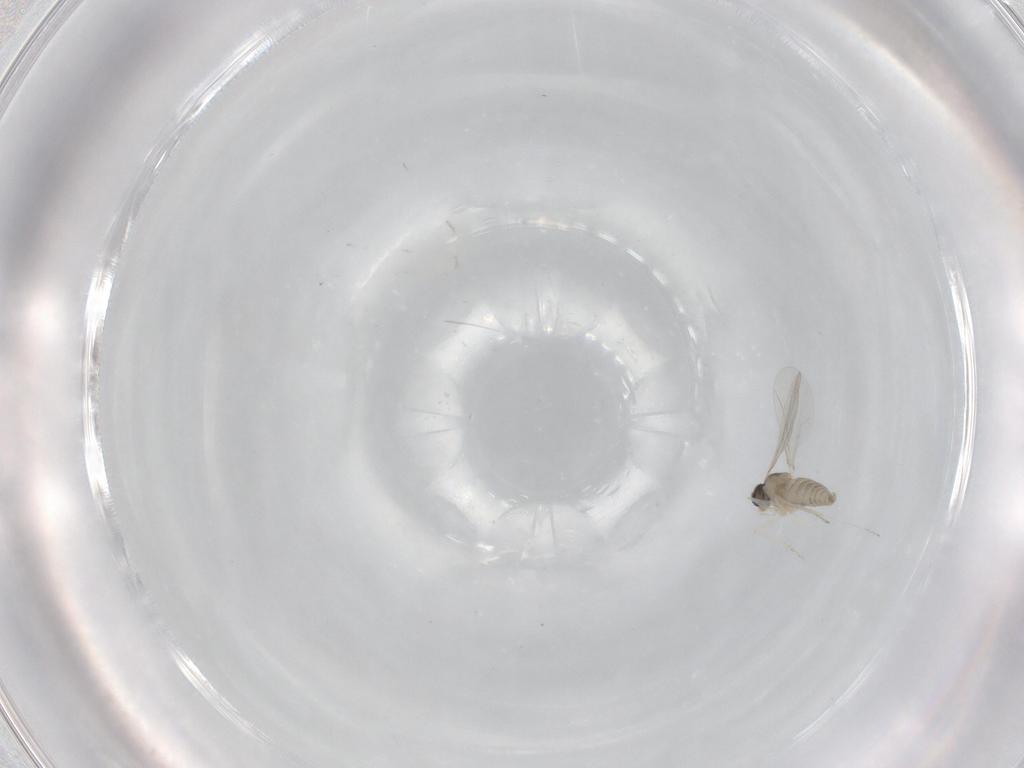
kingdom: Animalia
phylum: Arthropoda
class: Insecta
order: Diptera
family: Cecidomyiidae
